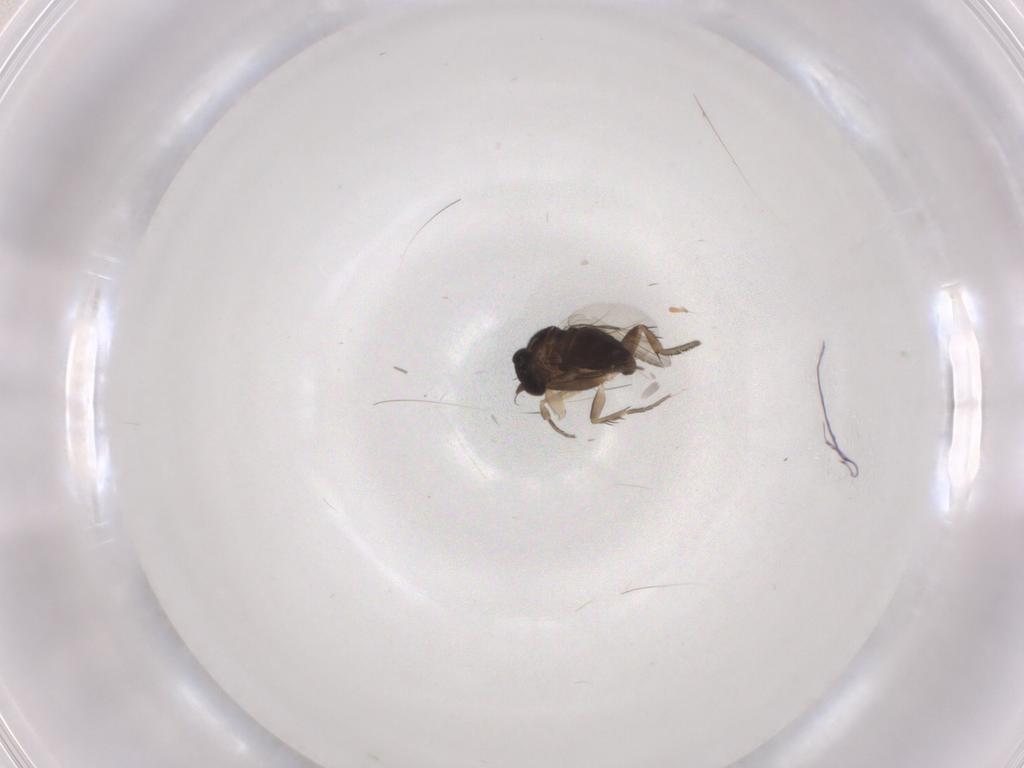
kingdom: Animalia
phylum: Arthropoda
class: Insecta
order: Diptera
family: Phoridae
